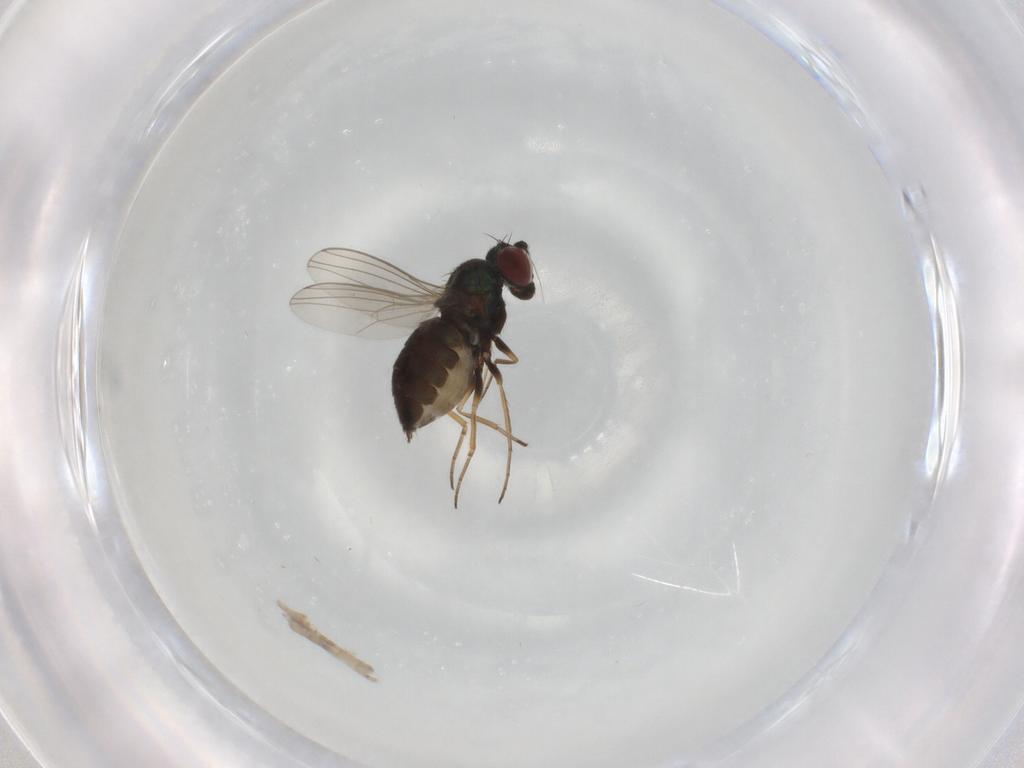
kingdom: Animalia
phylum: Arthropoda
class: Insecta
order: Diptera
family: Dolichopodidae
